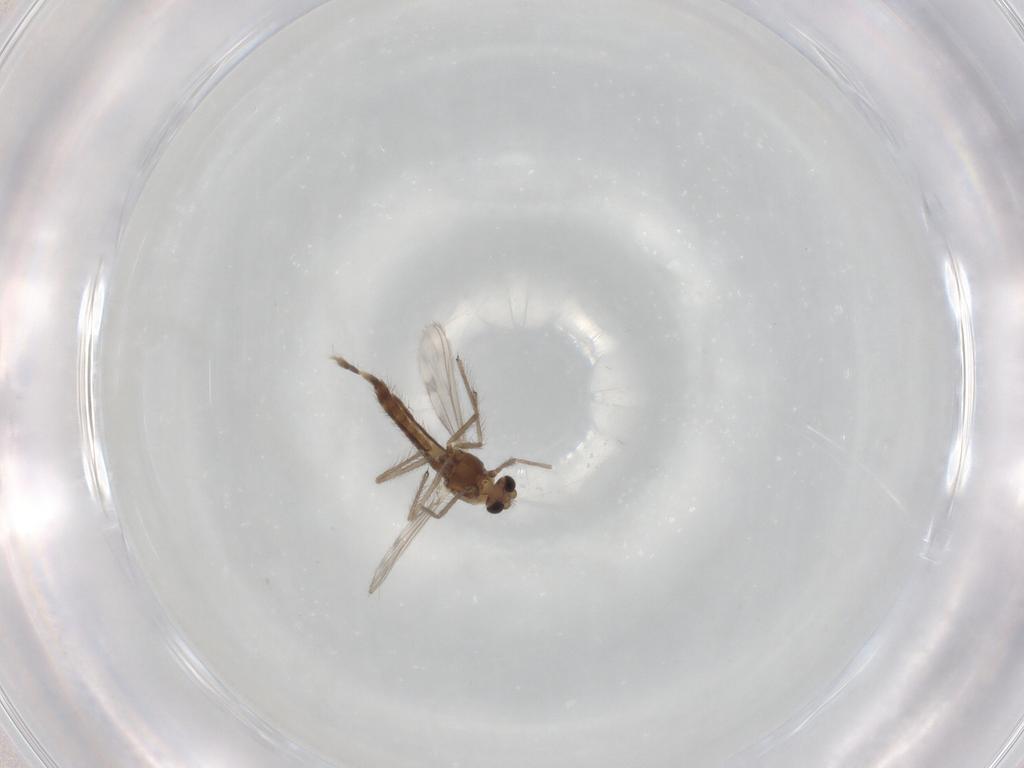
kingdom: Animalia
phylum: Arthropoda
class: Insecta
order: Diptera
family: Chironomidae
